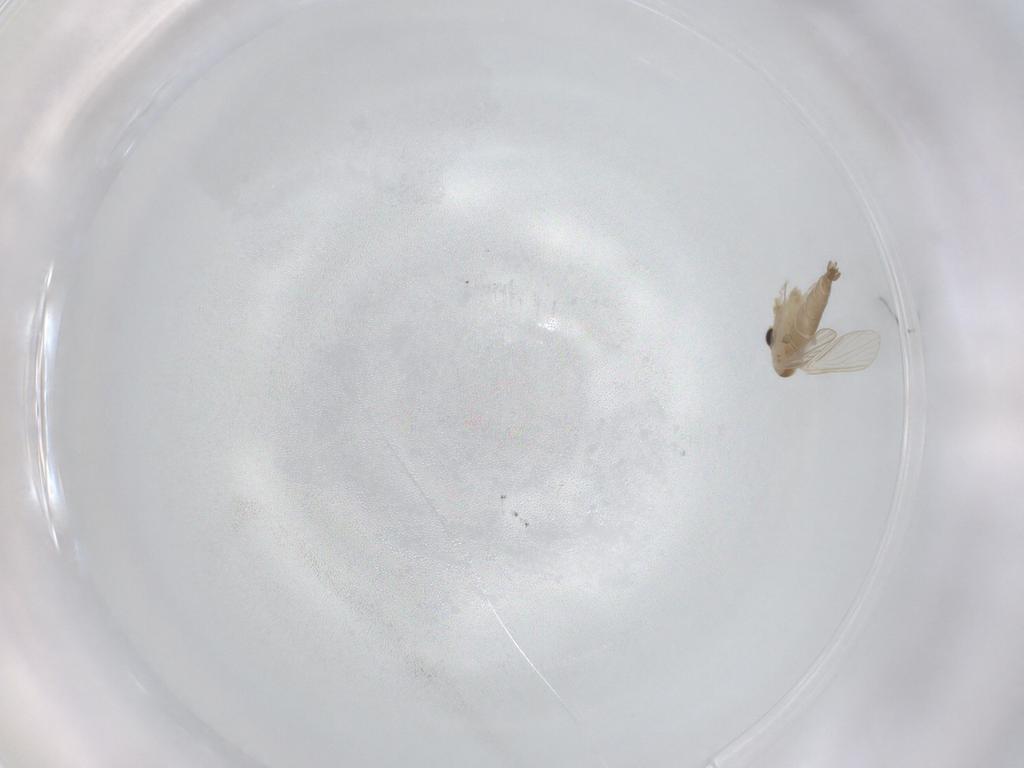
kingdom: Animalia
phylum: Arthropoda
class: Insecta
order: Diptera
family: Psychodidae
